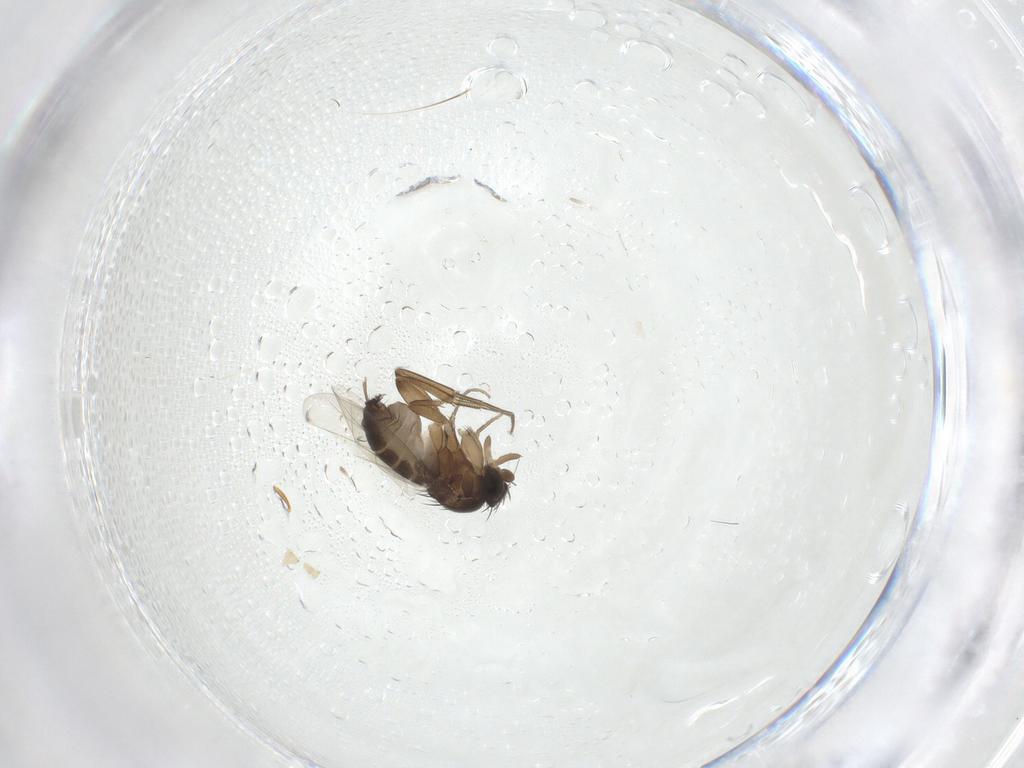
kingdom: Animalia
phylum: Arthropoda
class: Insecta
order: Diptera
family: Phoridae
